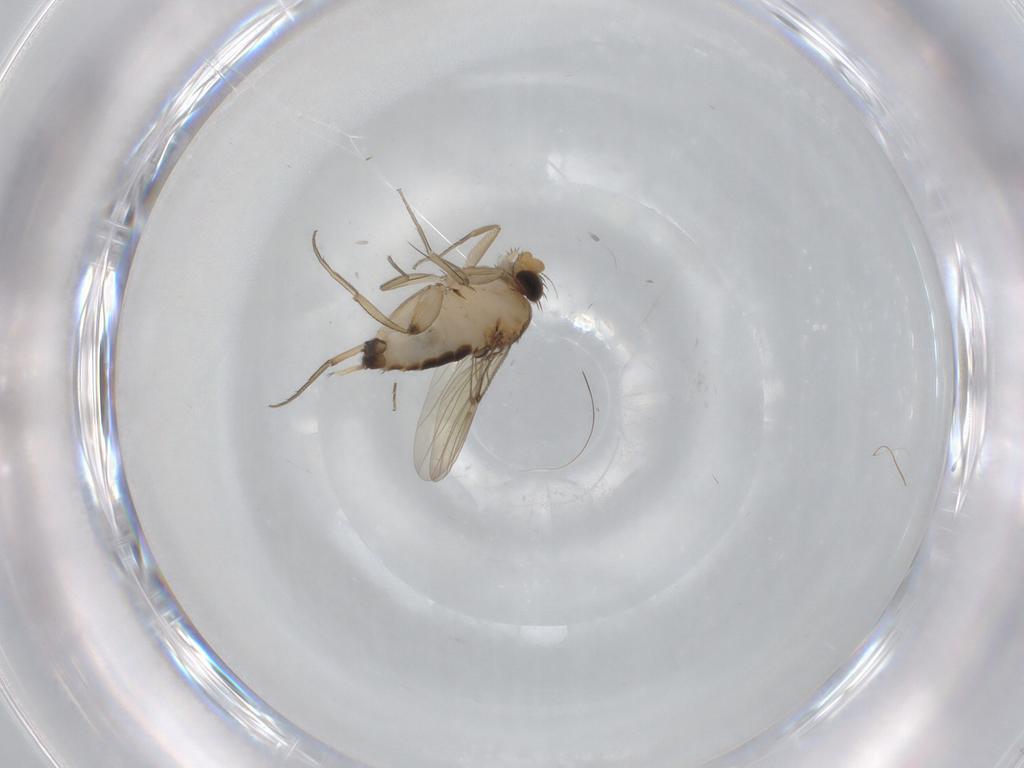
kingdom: Animalia
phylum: Arthropoda
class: Insecta
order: Diptera
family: Phoridae
